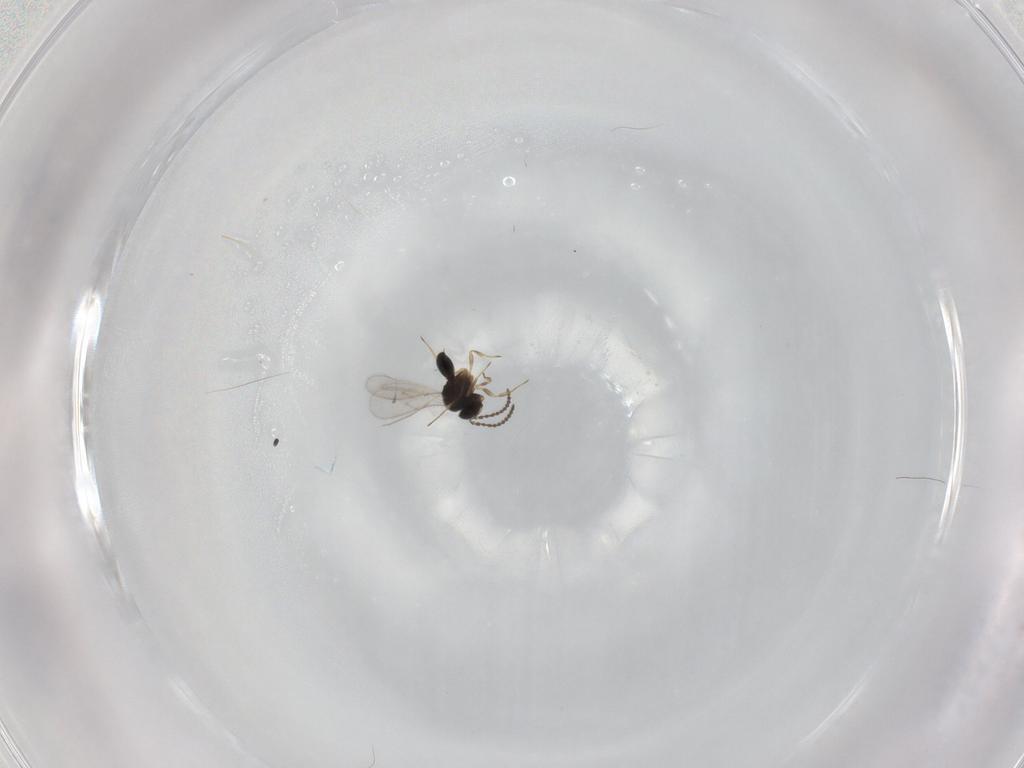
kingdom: Animalia
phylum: Arthropoda
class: Insecta
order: Hymenoptera
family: Scelionidae
